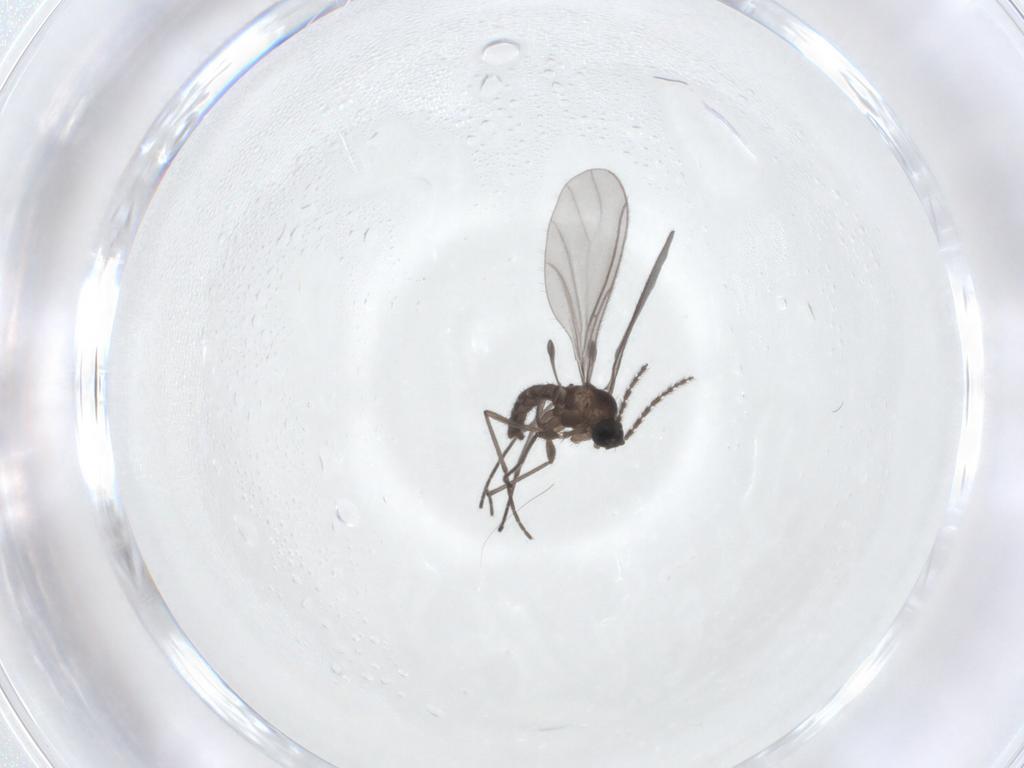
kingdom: Animalia
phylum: Arthropoda
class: Insecta
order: Diptera
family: Sciaridae
